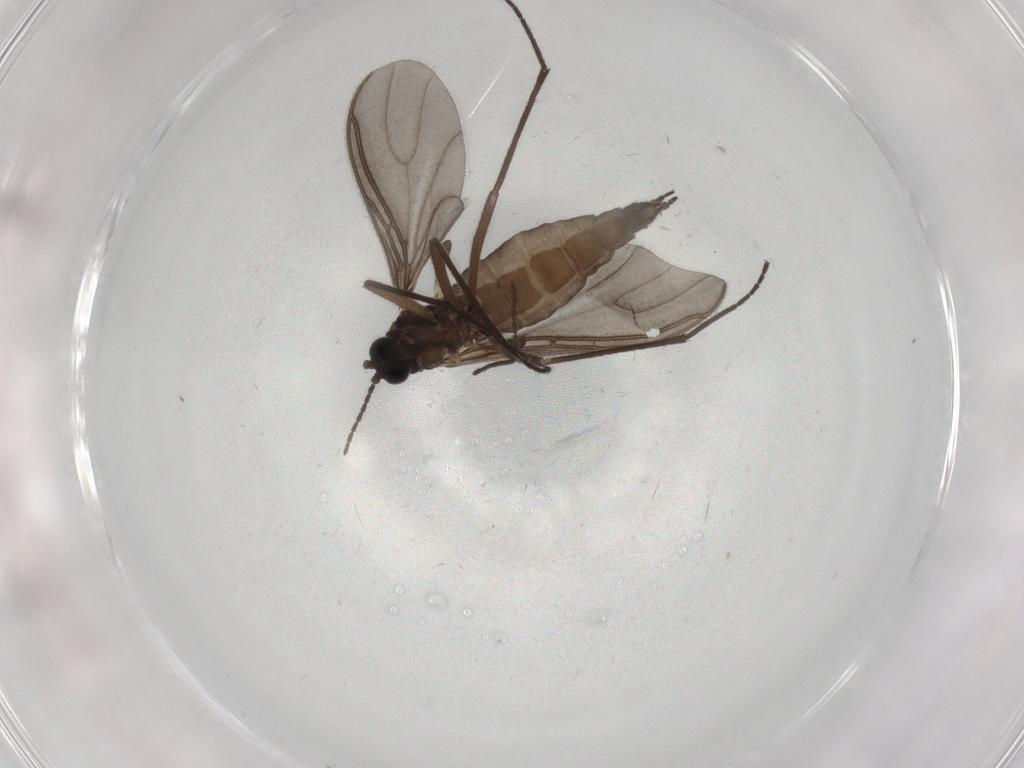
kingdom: Animalia
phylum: Arthropoda
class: Insecta
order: Diptera
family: Sciaridae
